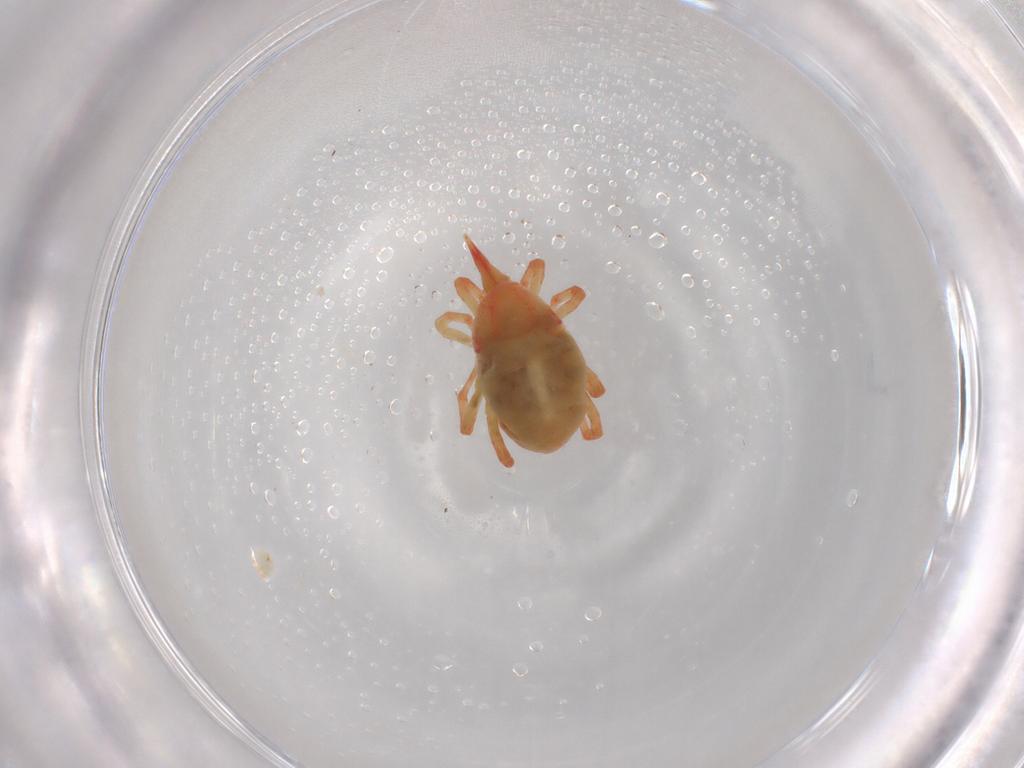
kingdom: Animalia
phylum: Arthropoda
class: Arachnida
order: Trombidiformes
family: Bdellidae
